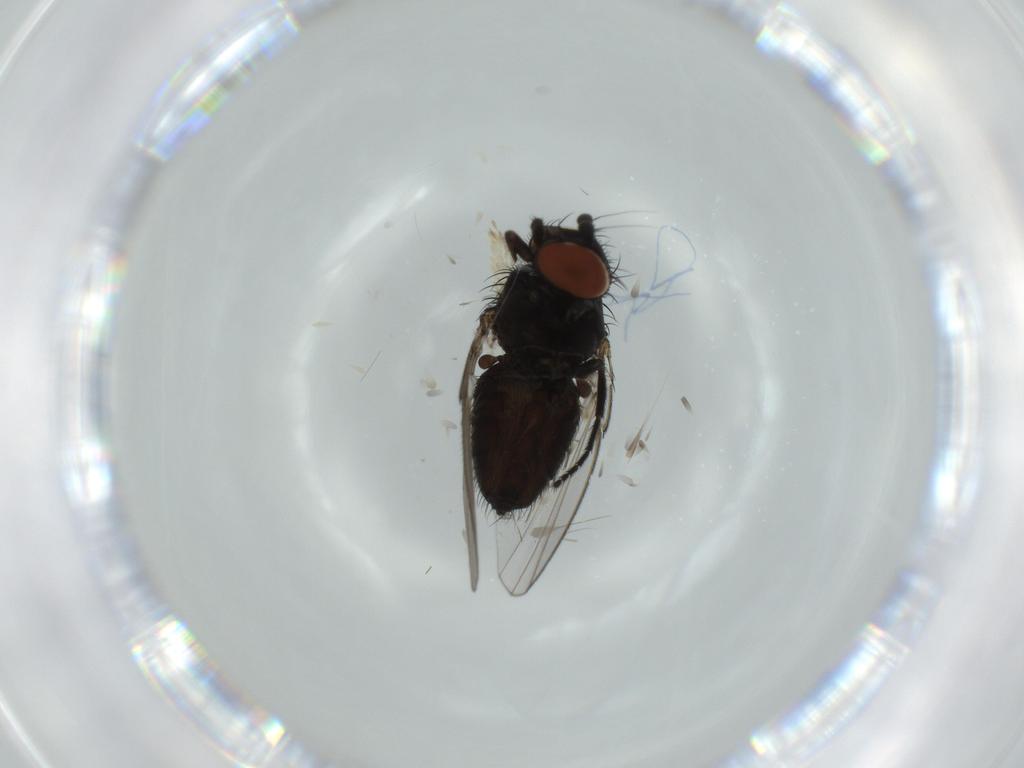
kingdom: Animalia
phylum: Arthropoda
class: Insecta
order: Diptera
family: Milichiidae
